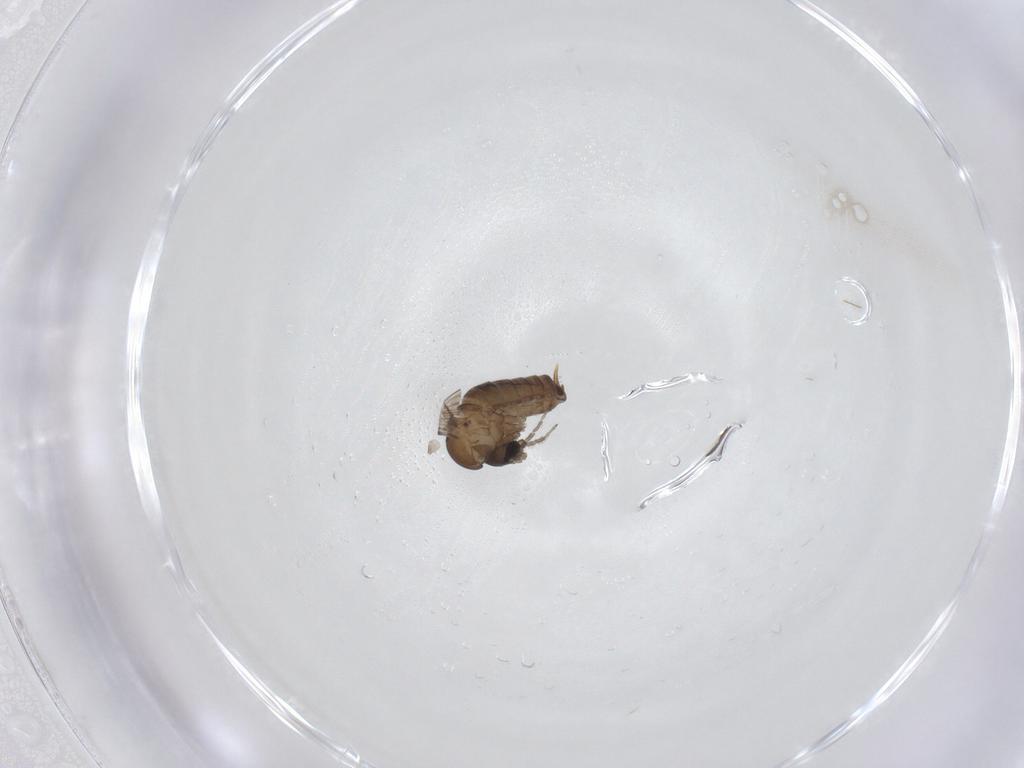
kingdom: Animalia
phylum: Arthropoda
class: Insecta
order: Diptera
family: Psychodidae
